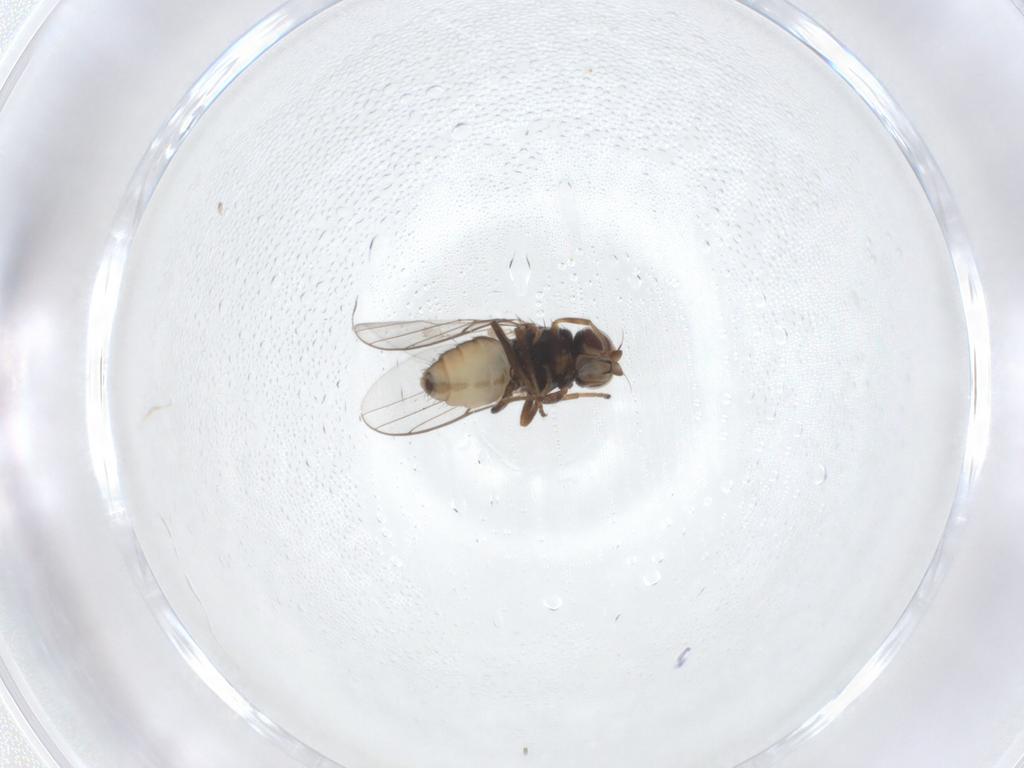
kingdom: Animalia
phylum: Arthropoda
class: Insecta
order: Diptera
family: Chloropidae
